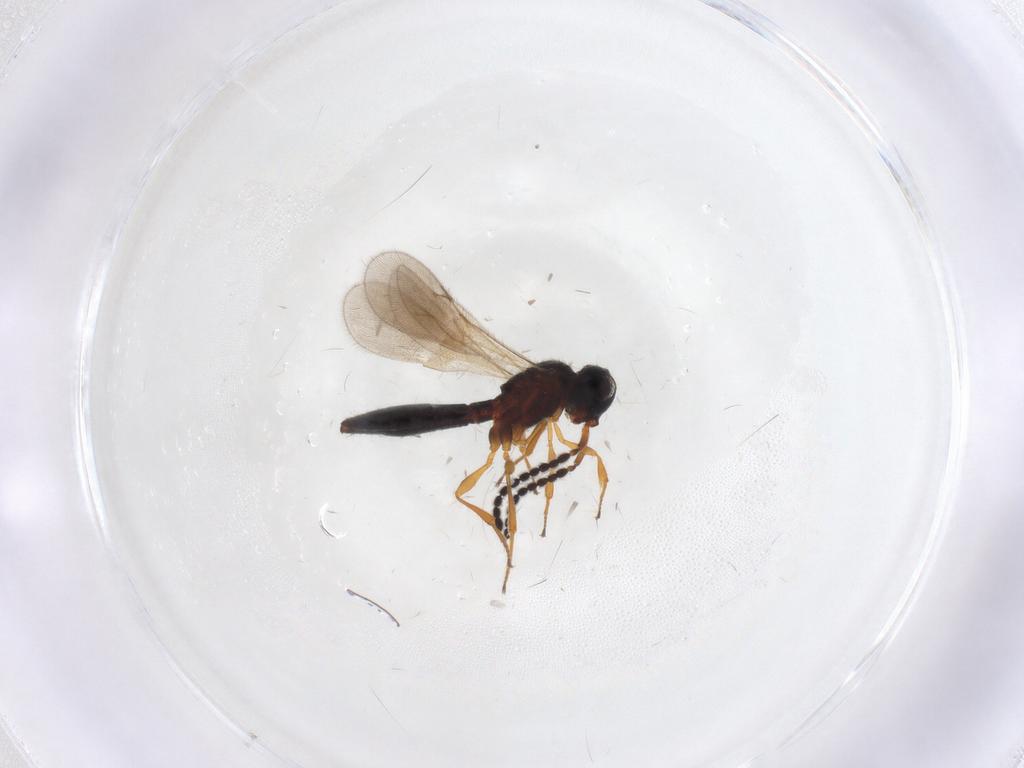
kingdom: Animalia
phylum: Arthropoda
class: Insecta
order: Hymenoptera
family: Scelionidae
